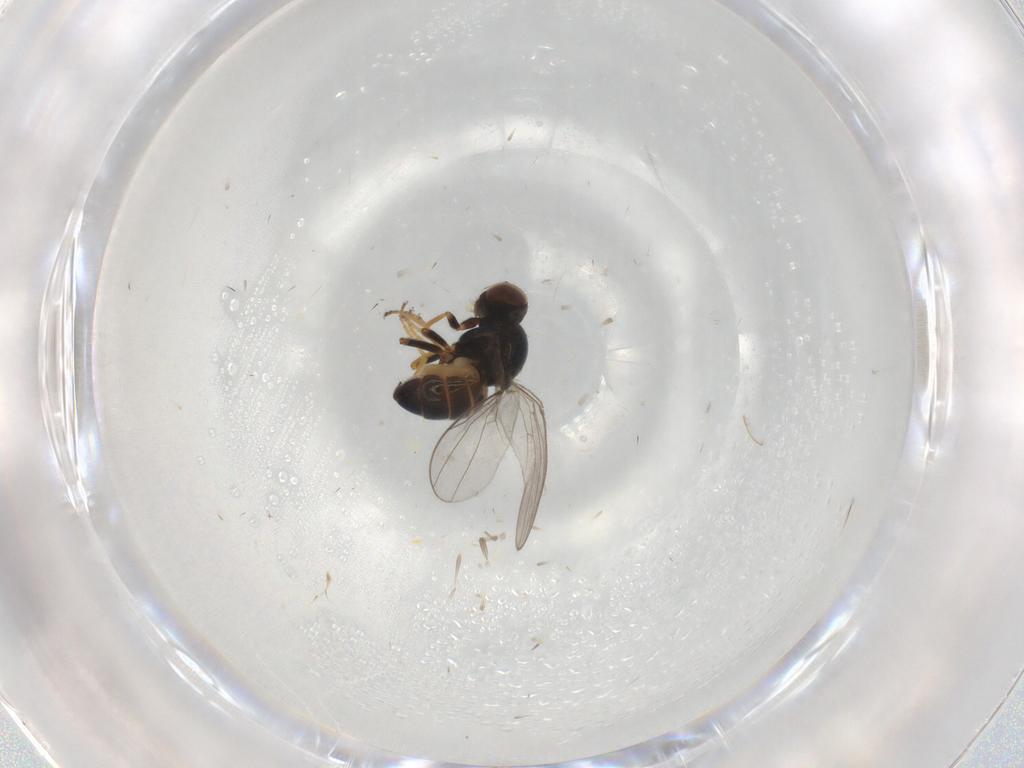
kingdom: Animalia
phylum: Arthropoda
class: Insecta
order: Diptera
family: Chloropidae
